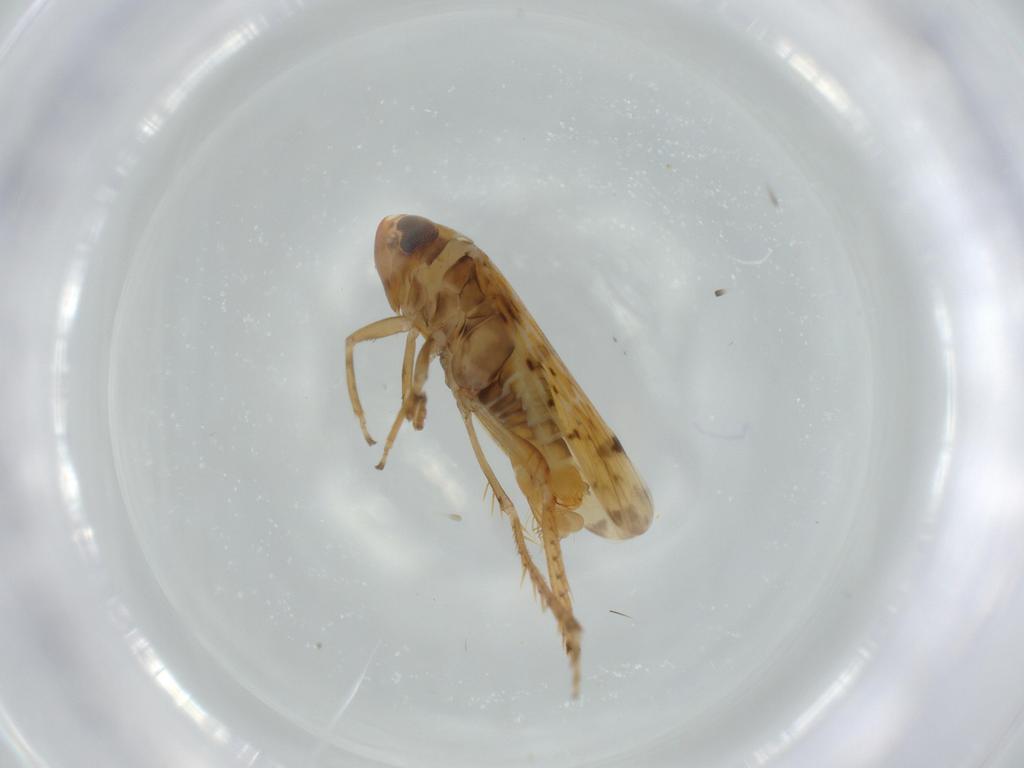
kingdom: Animalia
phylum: Arthropoda
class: Insecta
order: Hemiptera
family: Cicadellidae
